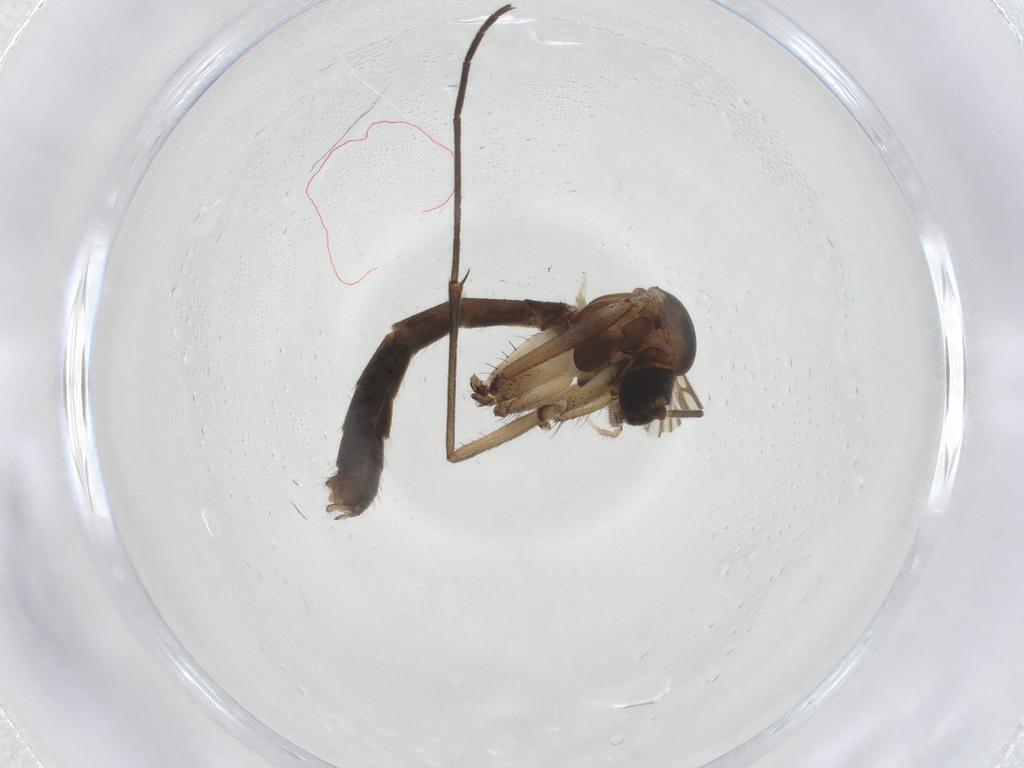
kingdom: Animalia
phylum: Arthropoda
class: Insecta
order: Diptera
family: Mycetophilidae
